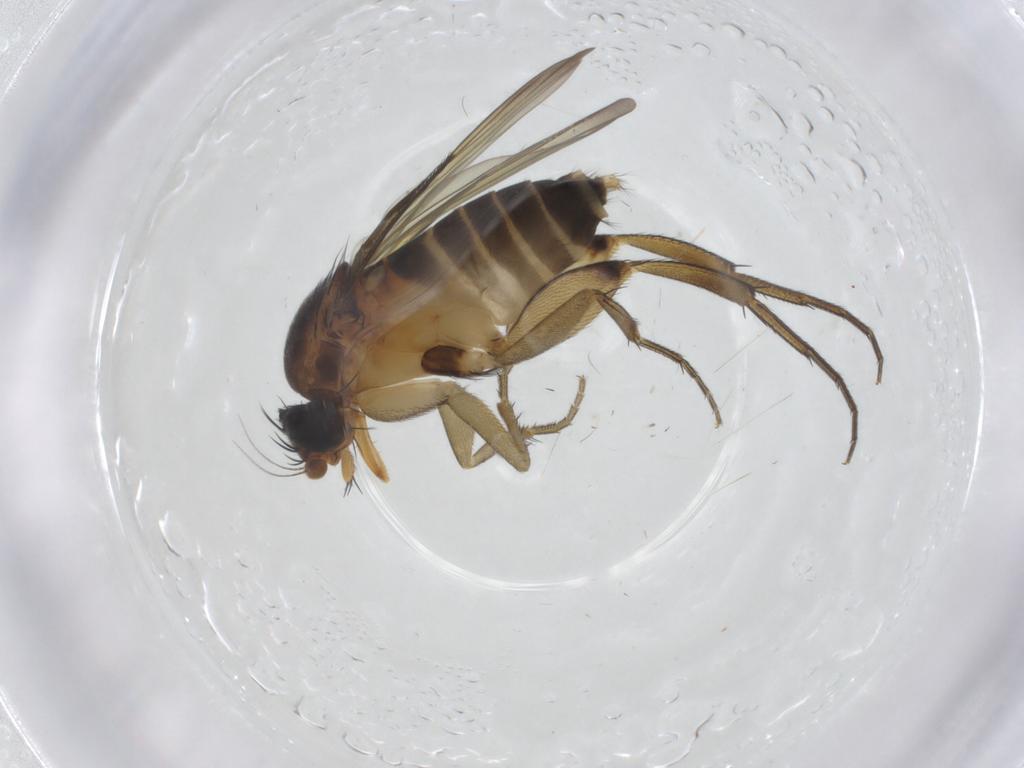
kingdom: Animalia
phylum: Arthropoda
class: Insecta
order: Diptera
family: Phoridae
